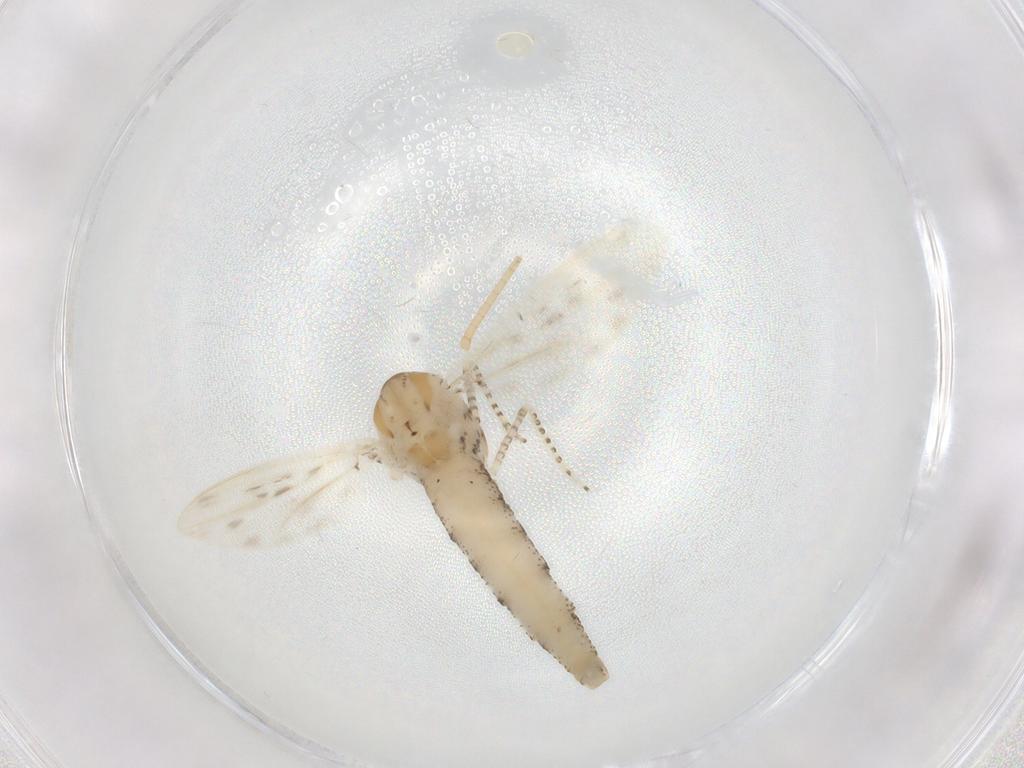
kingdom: Animalia
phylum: Arthropoda
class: Insecta
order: Diptera
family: Chaoboridae
